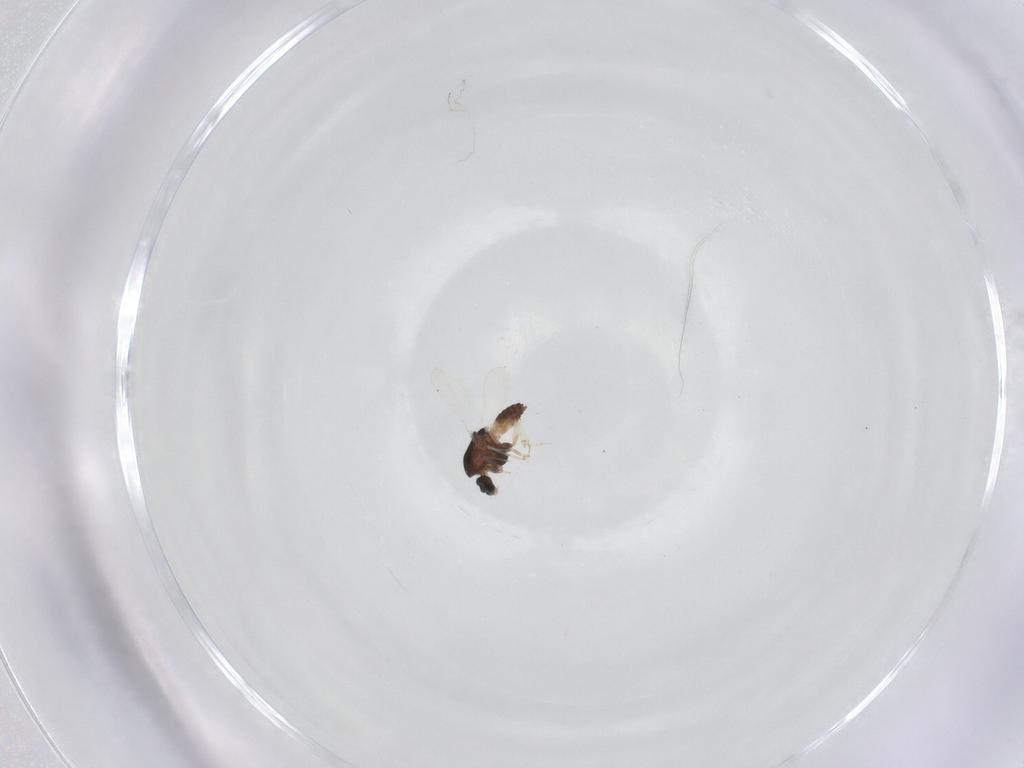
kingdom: Animalia
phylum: Arthropoda
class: Insecta
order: Diptera
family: Chironomidae
